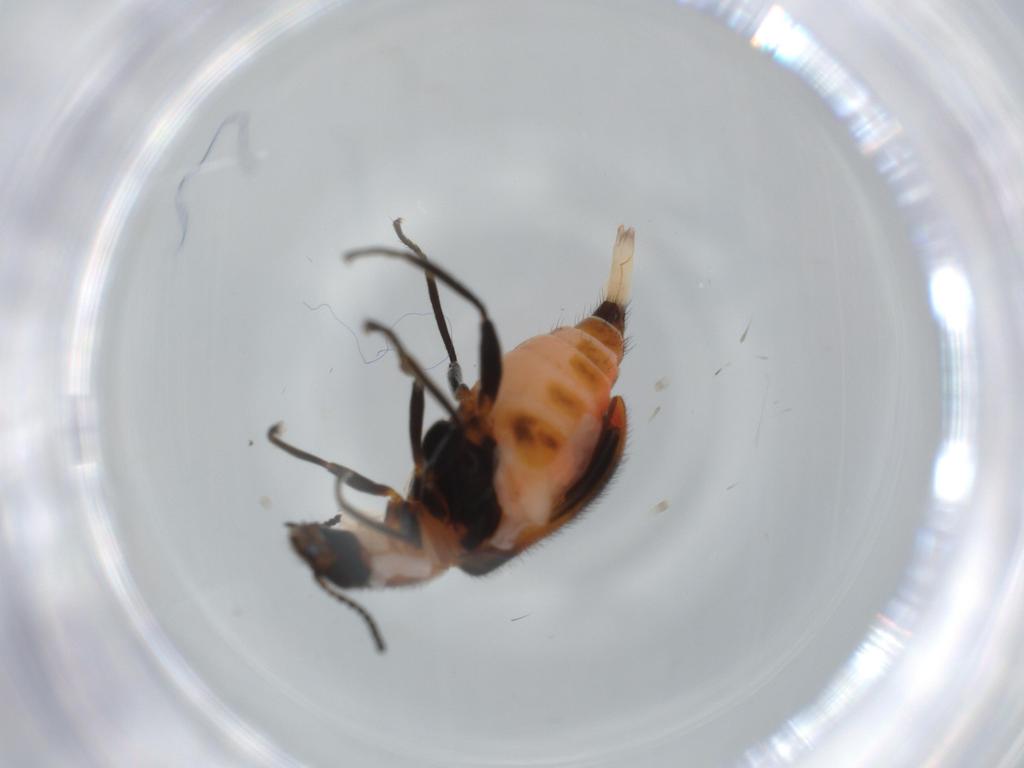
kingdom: Animalia
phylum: Arthropoda
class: Insecta
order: Coleoptera
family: Melyridae
